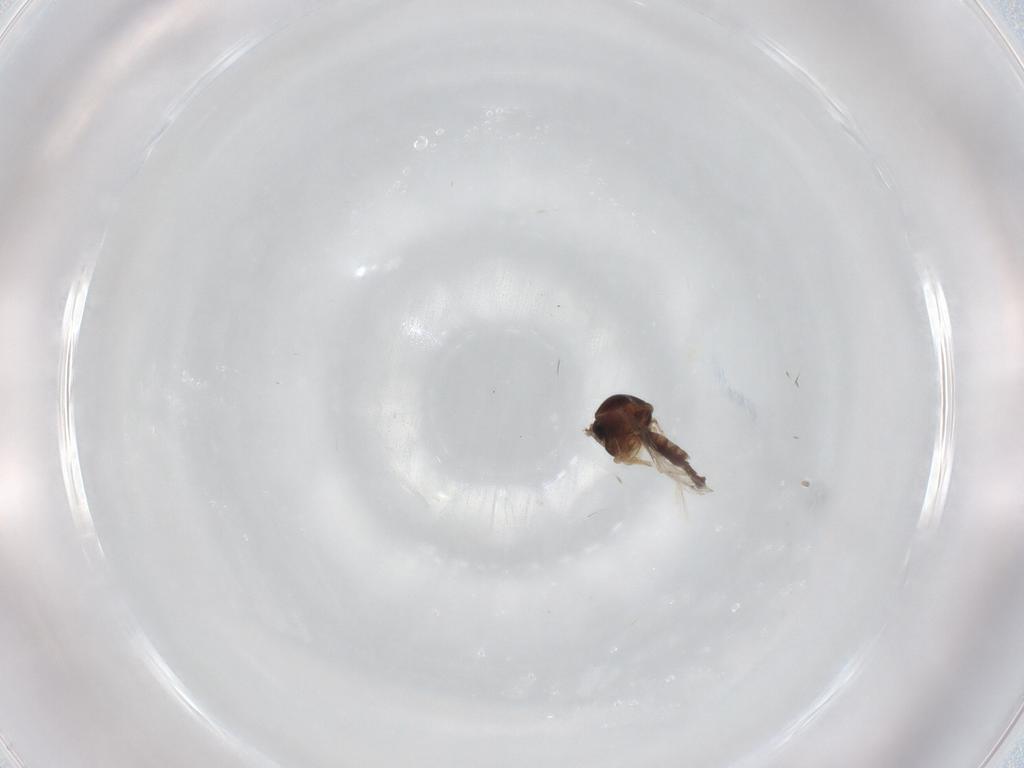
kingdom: Animalia
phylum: Arthropoda
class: Insecta
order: Diptera
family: Ceratopogonidae
